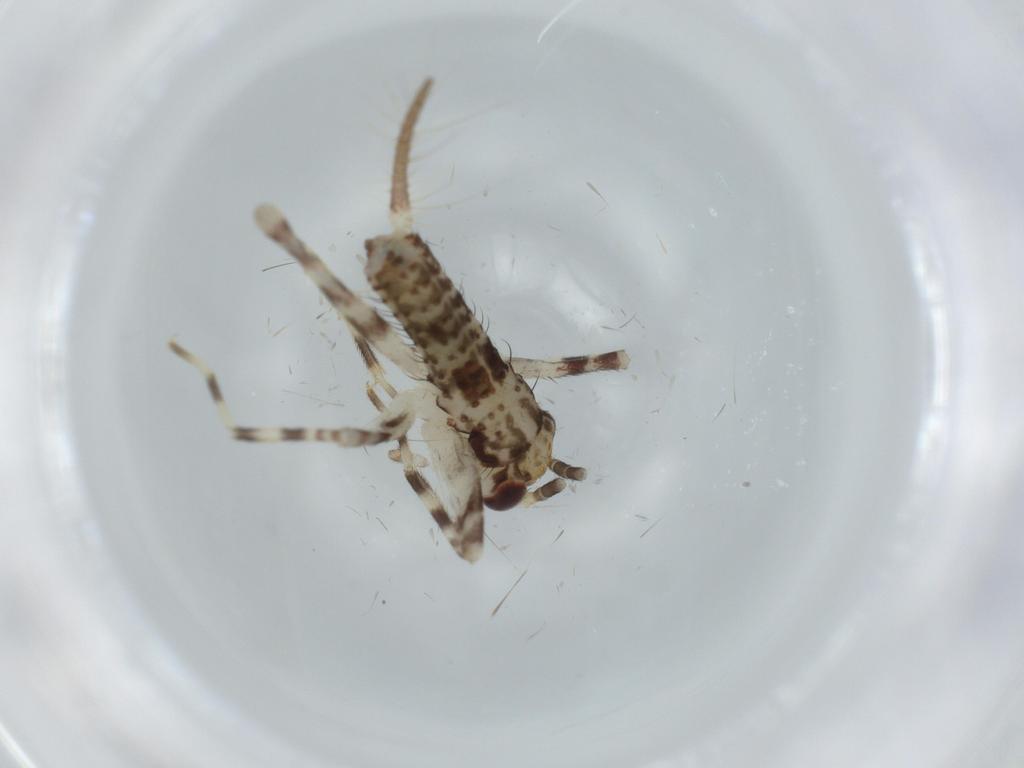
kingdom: Animalia
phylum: Arthropoda
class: Insecta
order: Orthoptera
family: Gryllidae
